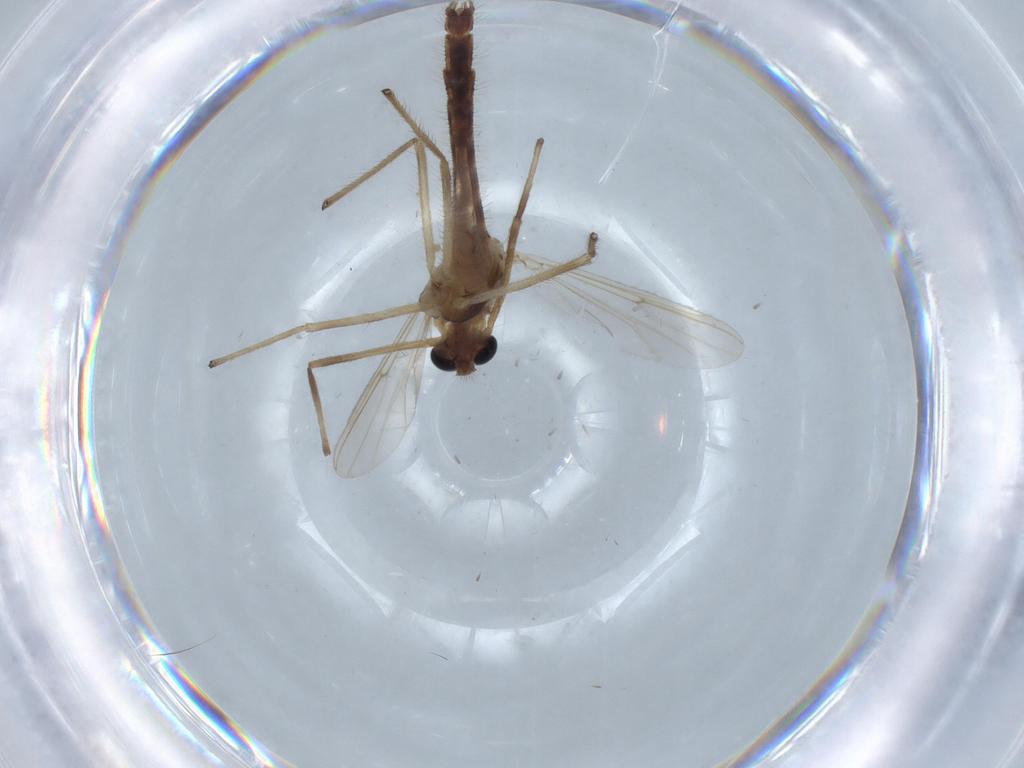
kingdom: Animalia
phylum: Arthropoda
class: Insecta
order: Diptera
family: Chironomidae
